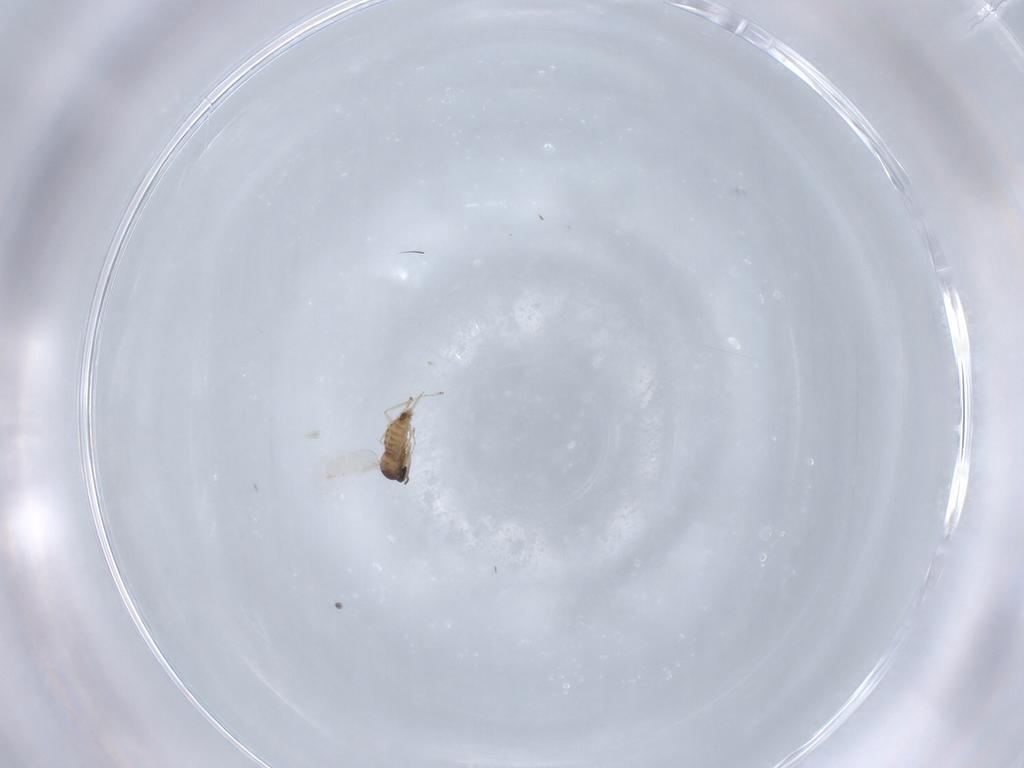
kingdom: Animalia
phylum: Arthropoda
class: Insecta
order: Diptera
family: Cecidomyiidae
